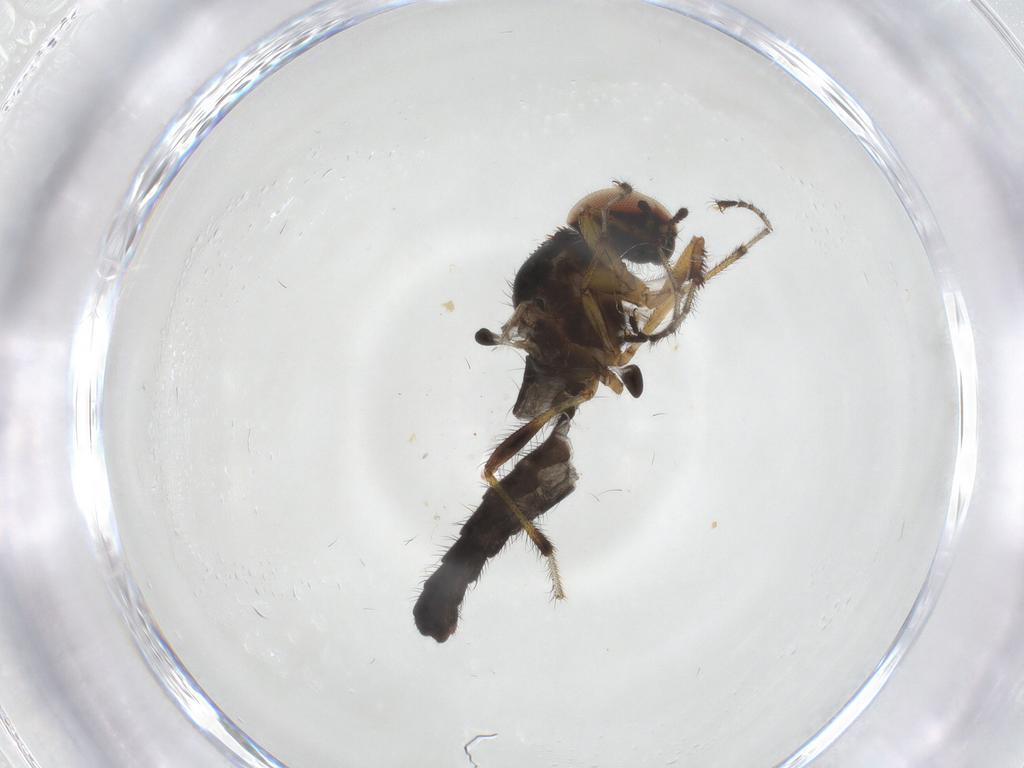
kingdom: Animalia
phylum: Arthropoda
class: Insecta
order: Diptera
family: Stratiomyidae
